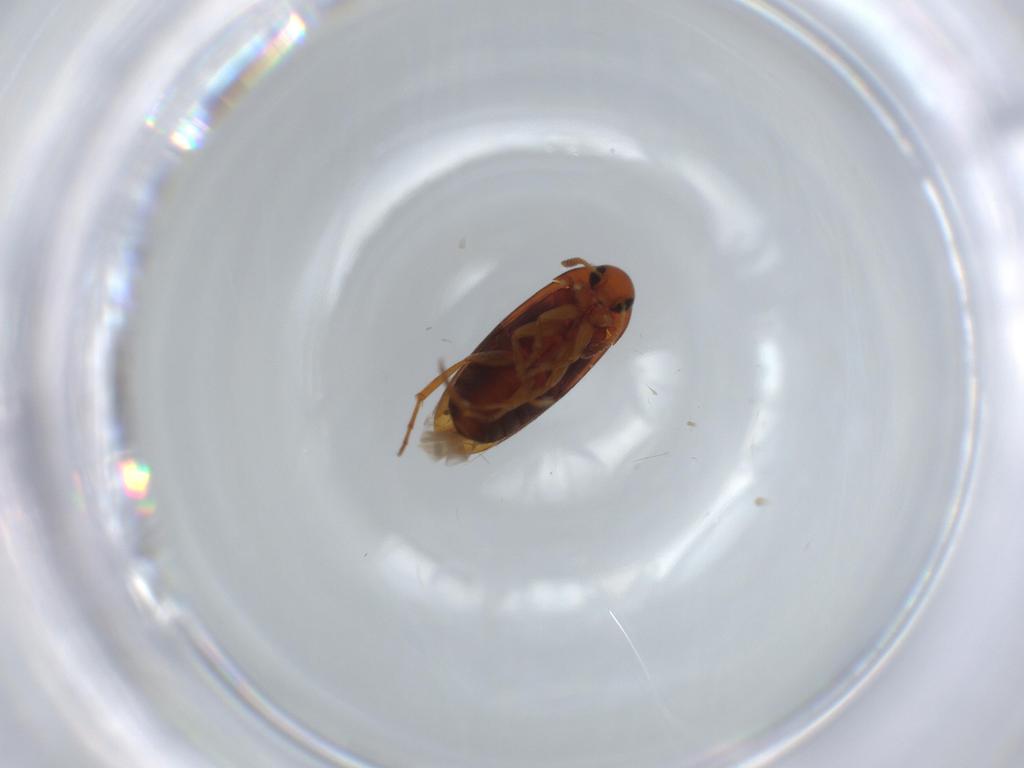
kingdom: Animalia
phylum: Arthropoda
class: Insecta
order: Coleoptera
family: Scraptiidae
